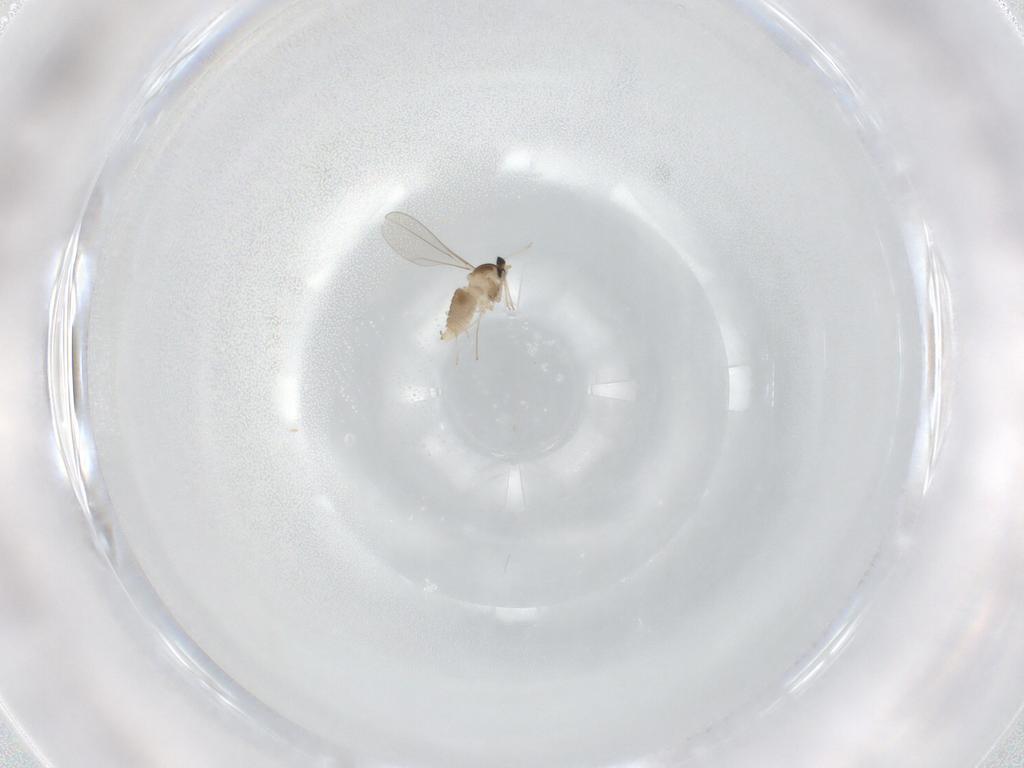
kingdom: Animalia
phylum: Arthropoda
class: Insecta
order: Diptera
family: Cecidomyiidae
